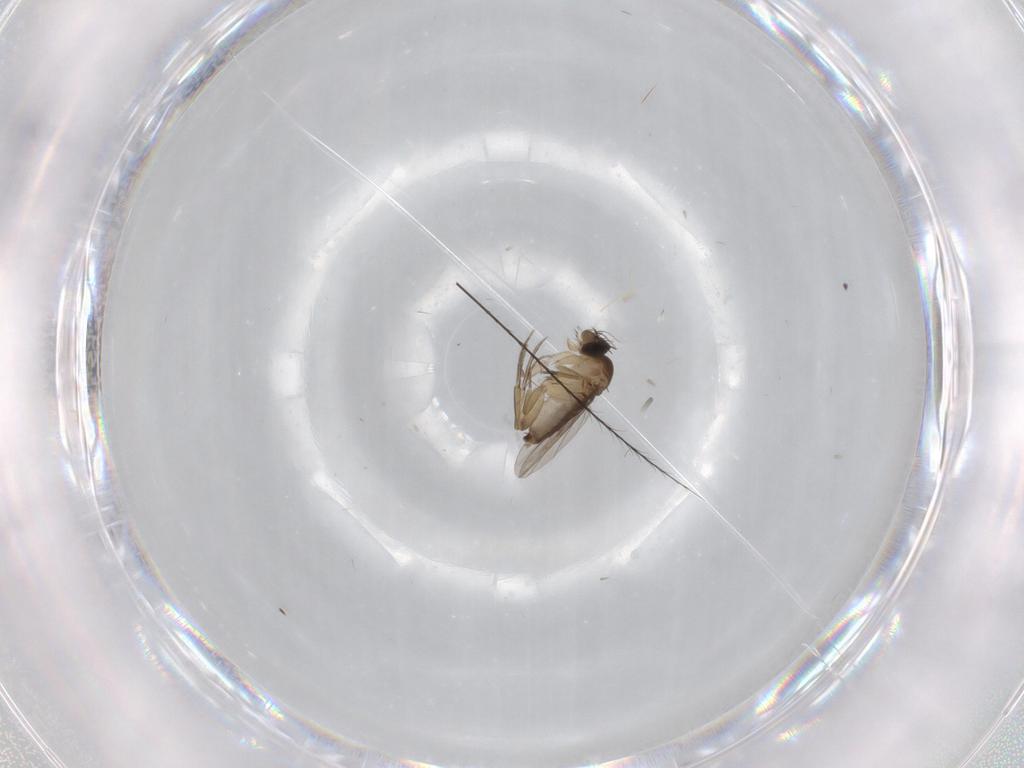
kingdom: Animalia
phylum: Arthropoda
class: Insecta
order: Diptera
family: Phoridae
